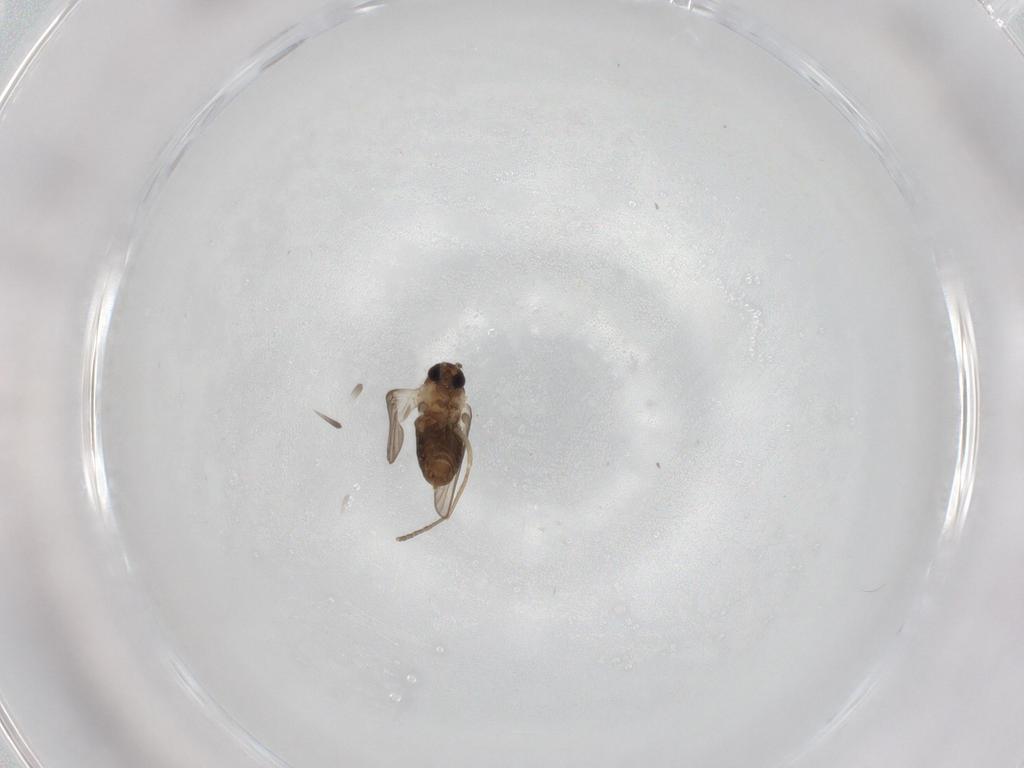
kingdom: Animalia
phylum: Arthropoda
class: Insecta
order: Diptera
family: Psychodidae
